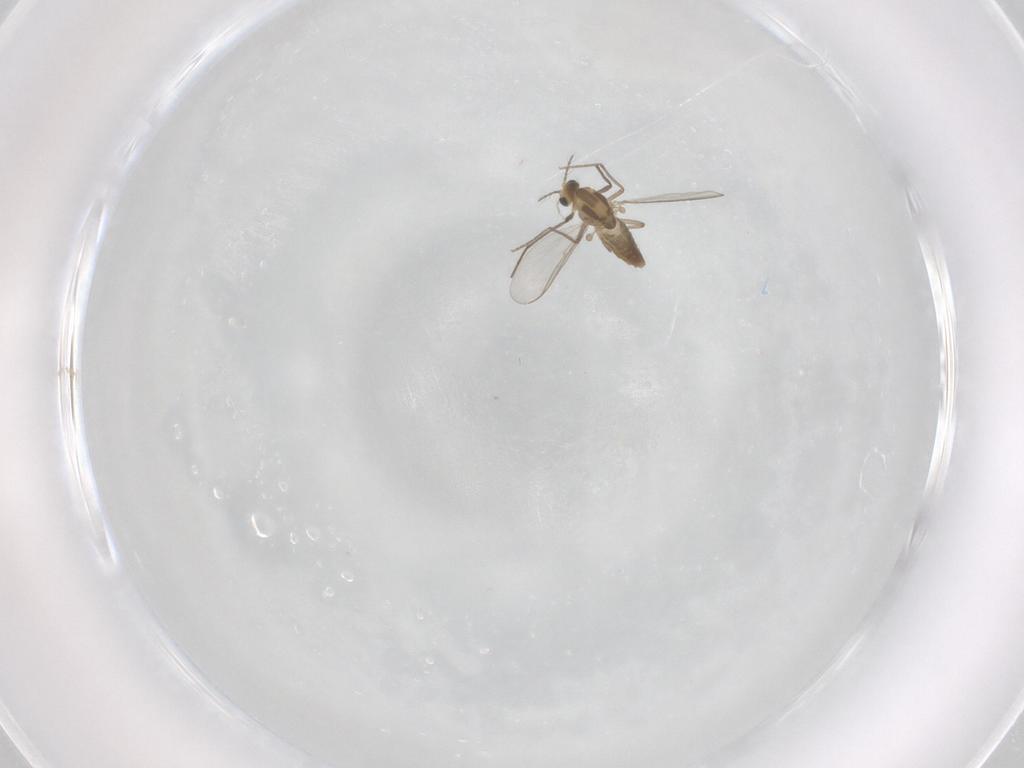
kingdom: Animalia
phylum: Arthropoda
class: Insecta
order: Diptera
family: Chironomidae
